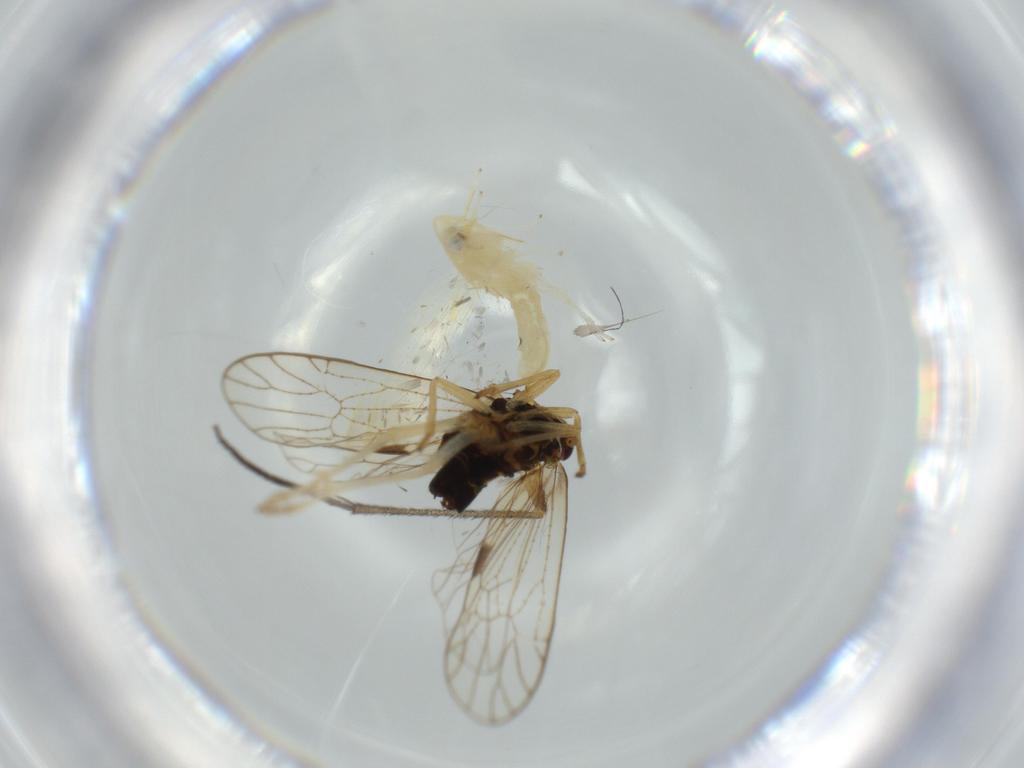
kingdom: Animalia
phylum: Arthropoda
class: Insecta
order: Hemiptera
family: Cicadellidae
